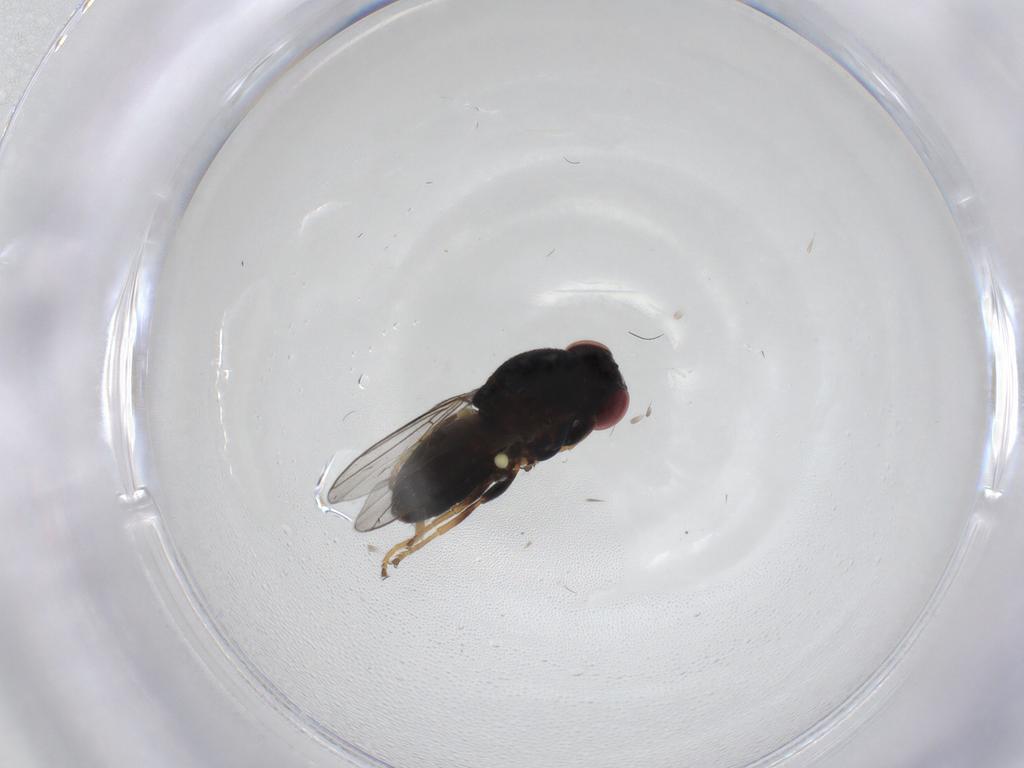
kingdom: Animalia
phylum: Arthropoda
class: Insecta
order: Diptera
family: Chloropidae
